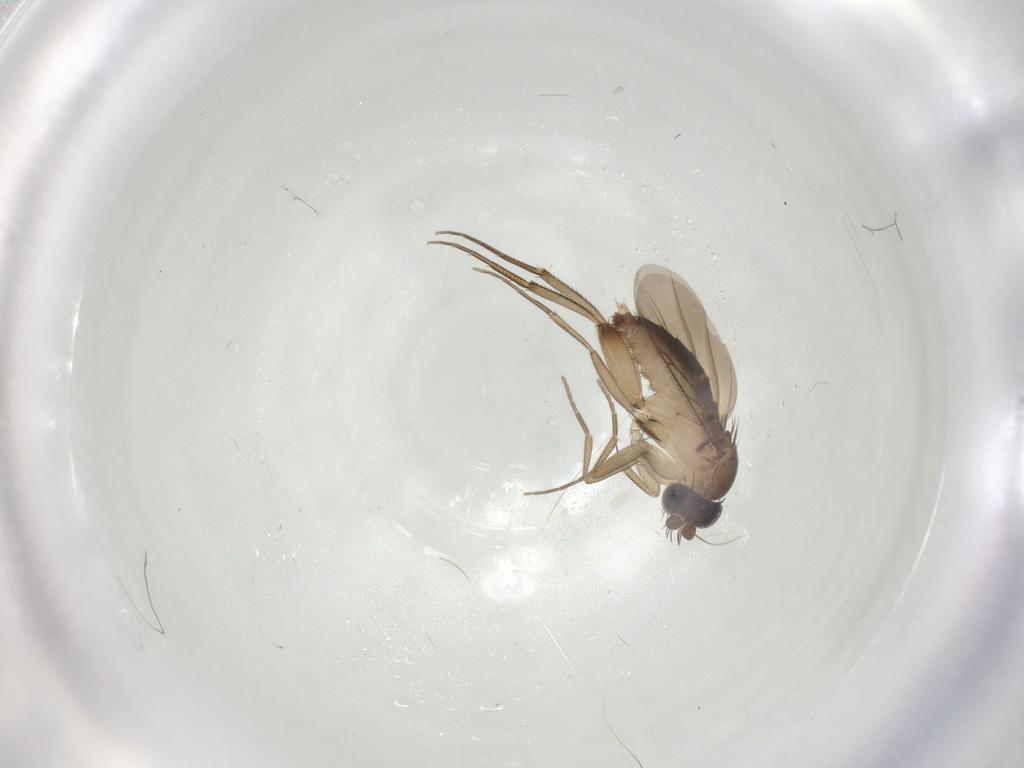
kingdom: Animalia
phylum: Arthropoda
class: Insecta
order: Diptera
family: Phoridae
